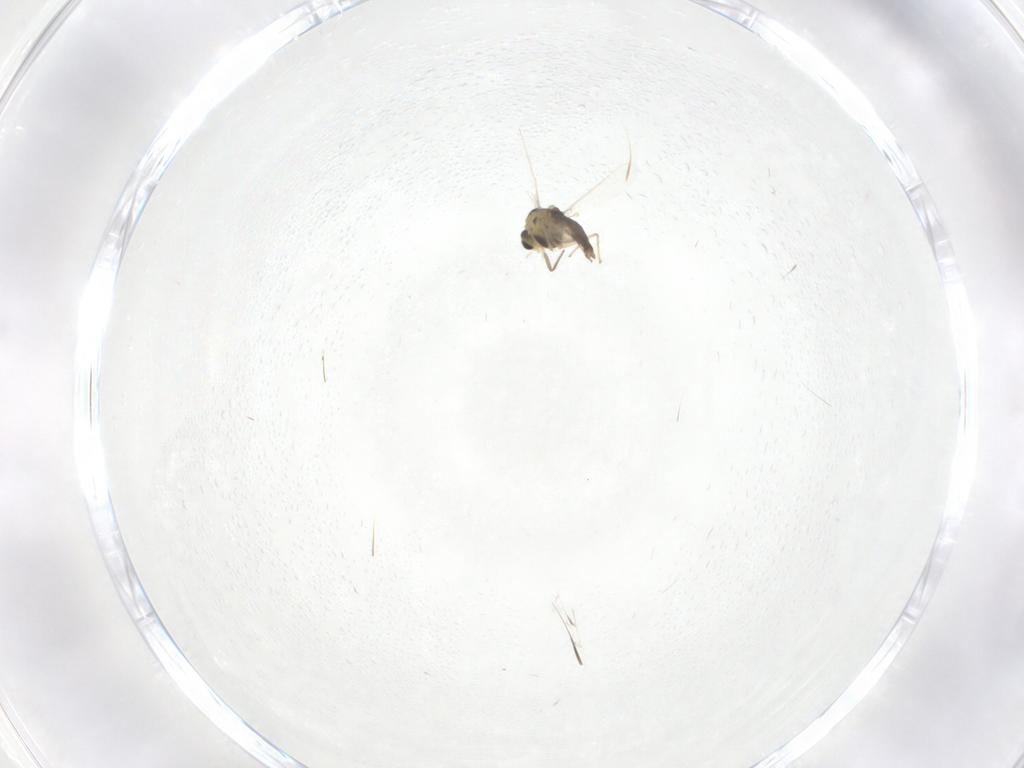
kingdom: Animalia
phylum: Arthropoda
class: Insecta
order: Diptera
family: Chironomidae
